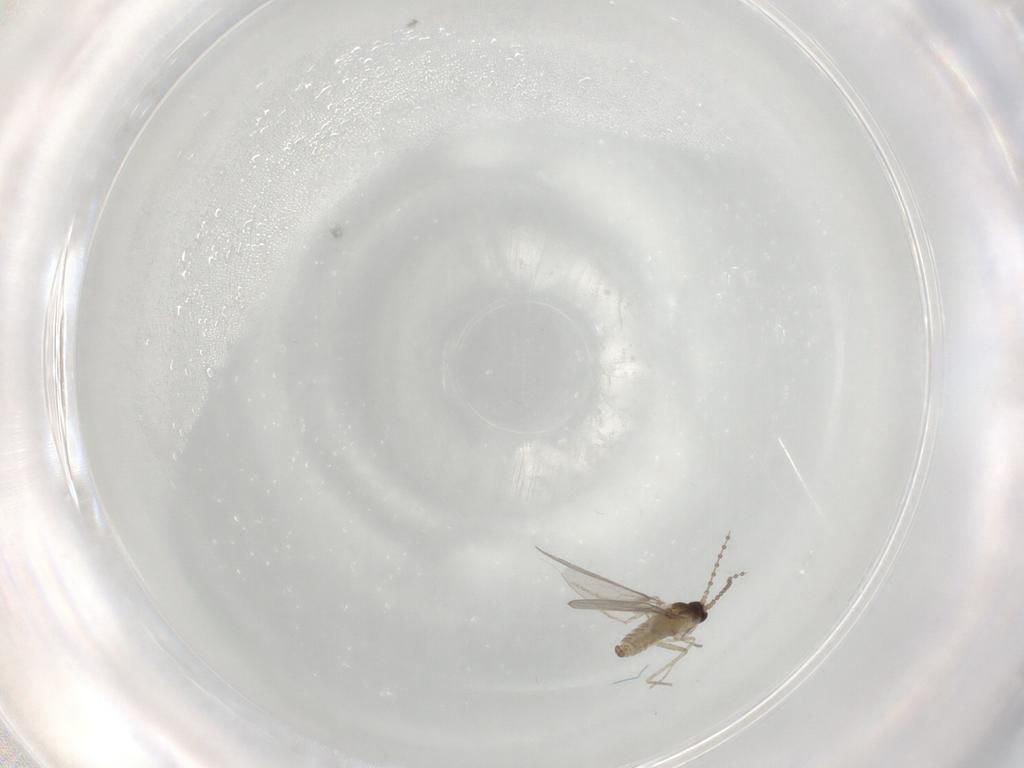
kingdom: Animalia
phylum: Arthropoda
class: Insecta
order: Diptera
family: Cecidomyiidae
